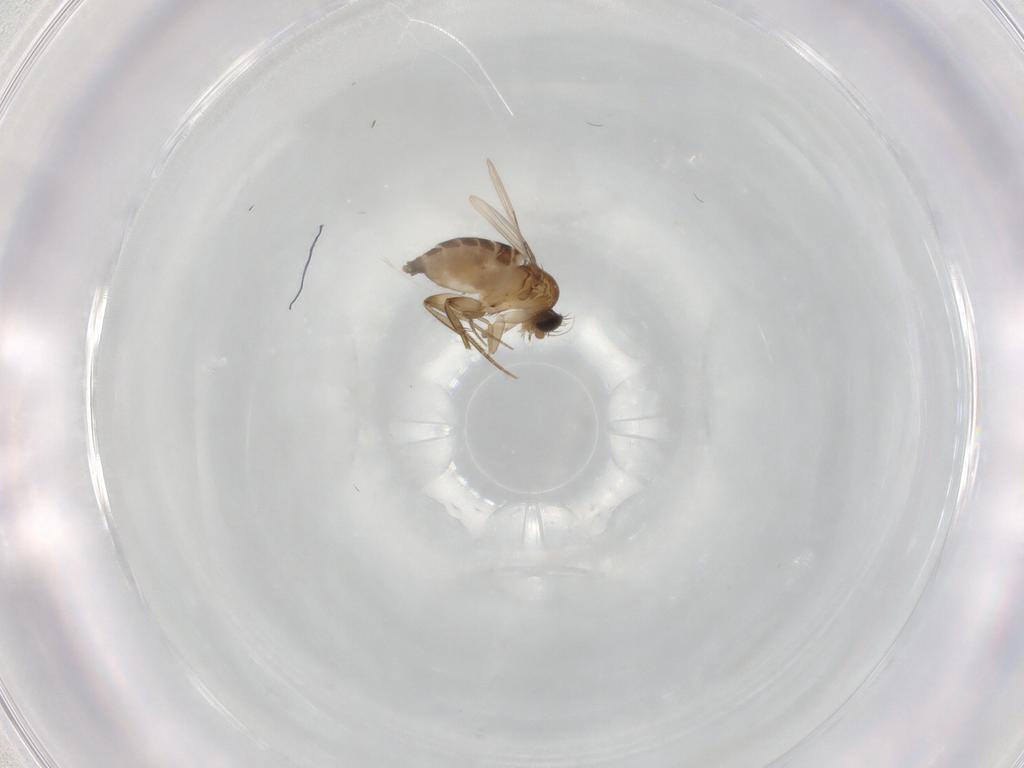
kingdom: Animalia
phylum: Arthropoda
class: Insecta
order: Diptera
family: Phoridae
